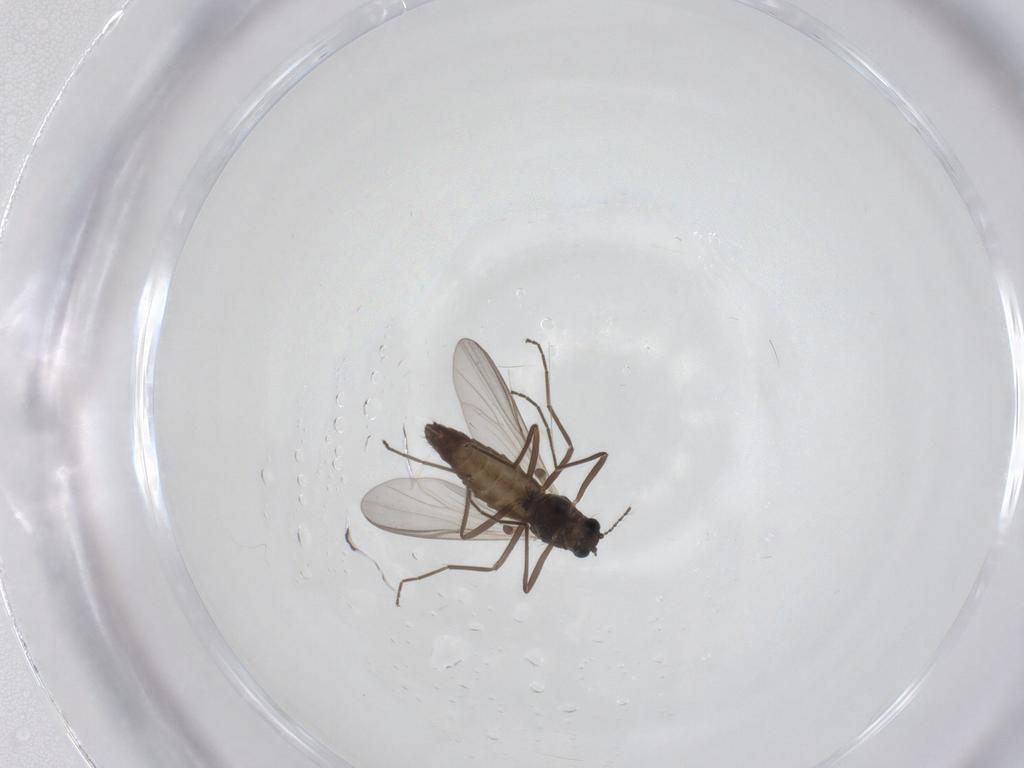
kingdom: Animalia
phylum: Arthropoda
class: Insecta
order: Diptera
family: Chironomidae
